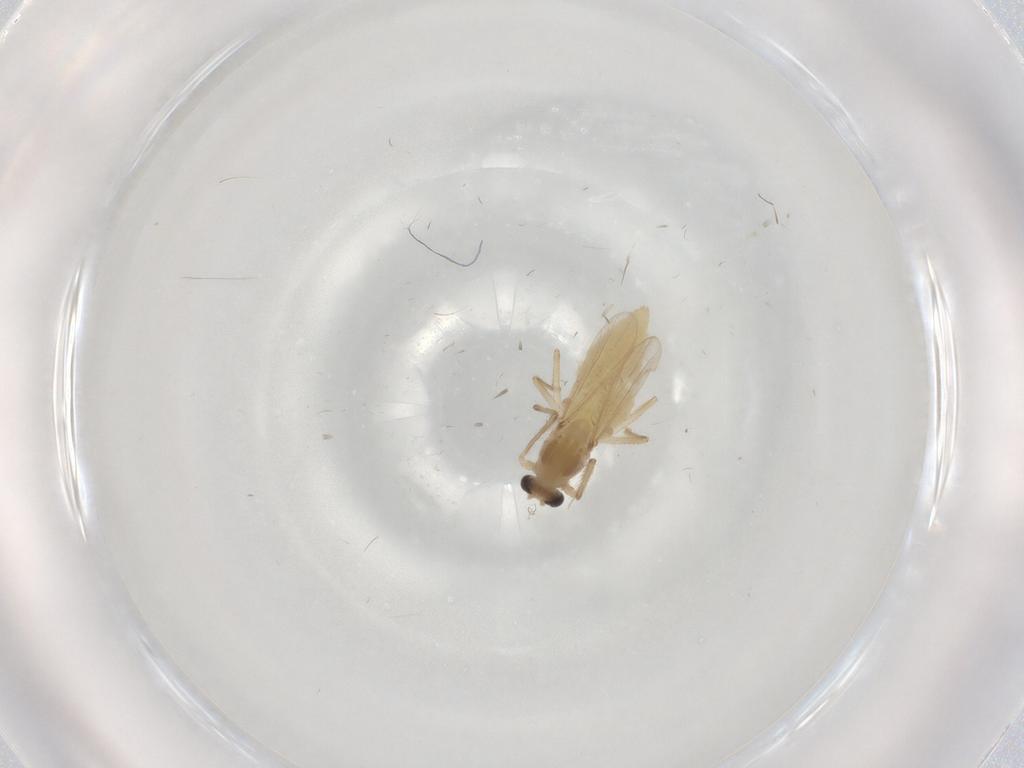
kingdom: Animalia
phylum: Arthropoda
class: Insecta
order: Diptera
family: Chironomidae
